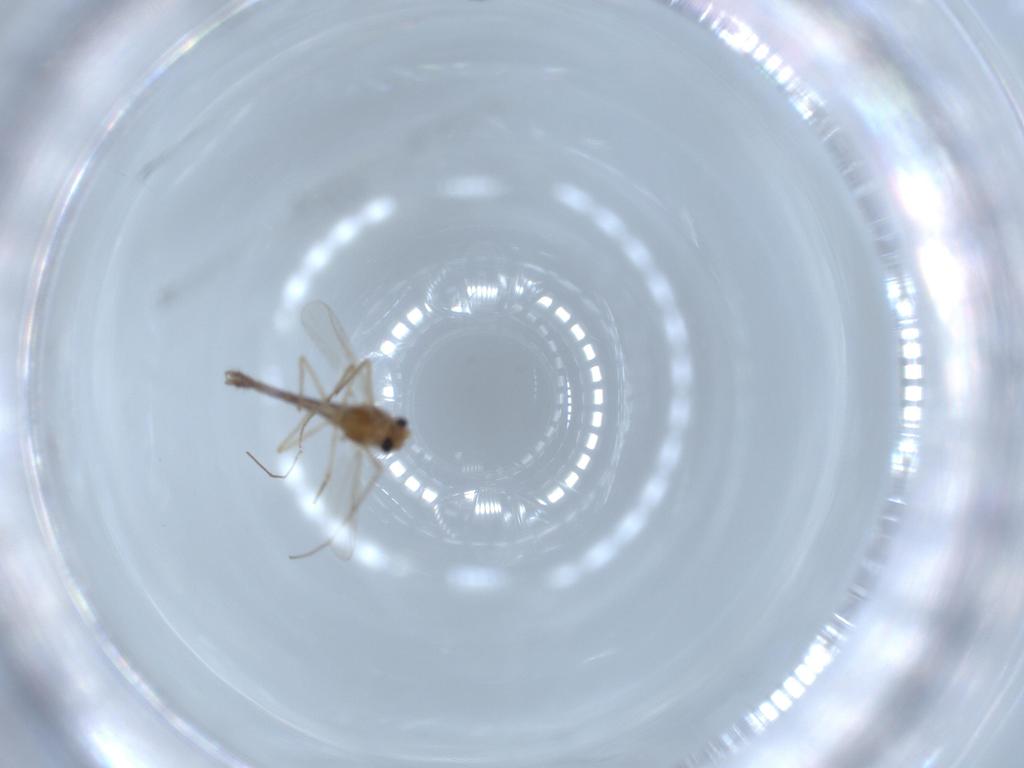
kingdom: Animalia
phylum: Arthropoda
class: Insecta
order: Diptera
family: Chironomidae
